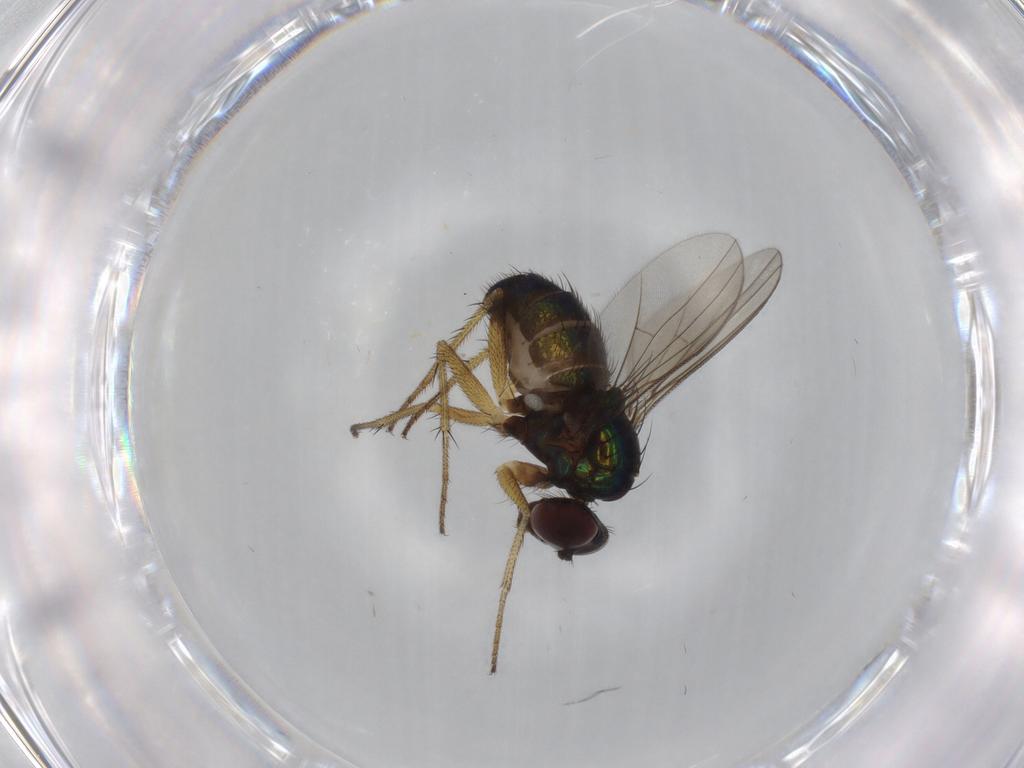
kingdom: Animalia
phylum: Arthropoda
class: Insecta
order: Diptera
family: Dolichopodidae
